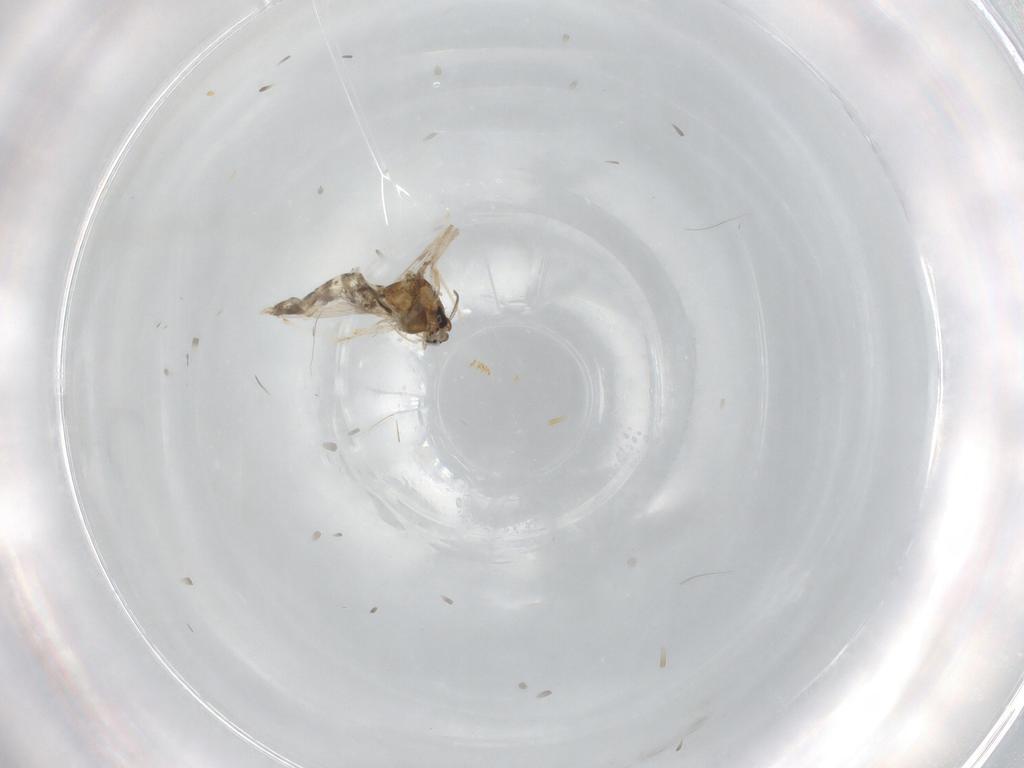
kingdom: Animalia
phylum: Arthropoda
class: Insecta
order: Diptera
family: Chironomidae
